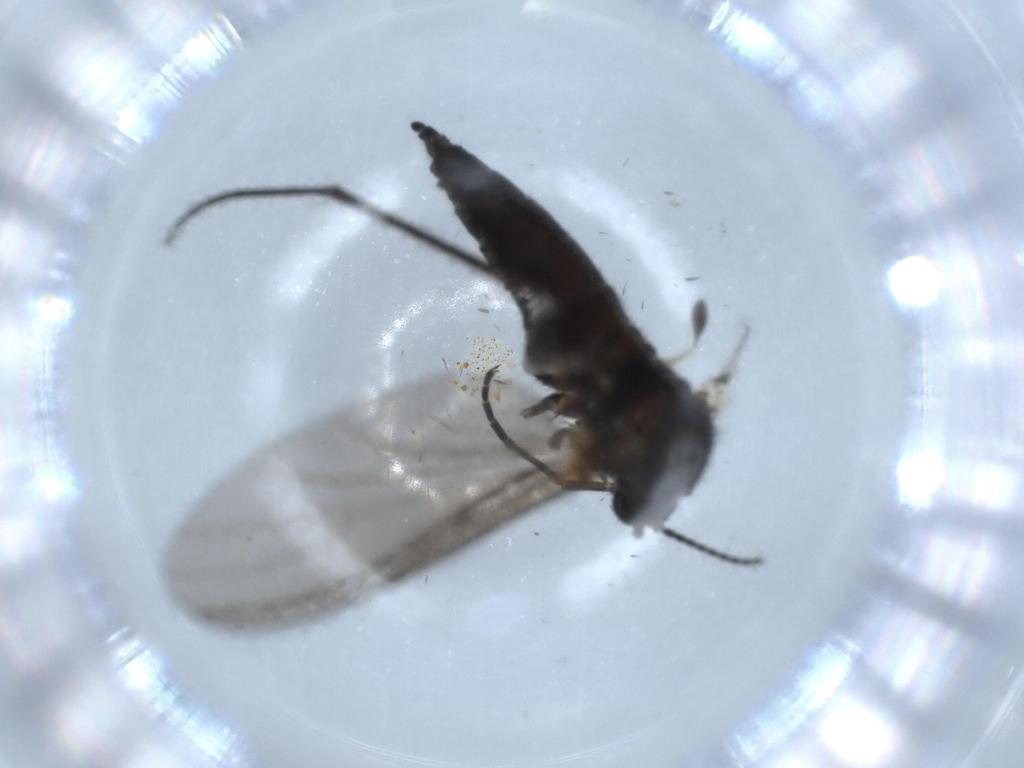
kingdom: Animalia
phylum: Arthropoda
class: Insecta
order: Diptera
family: Sciaridae
